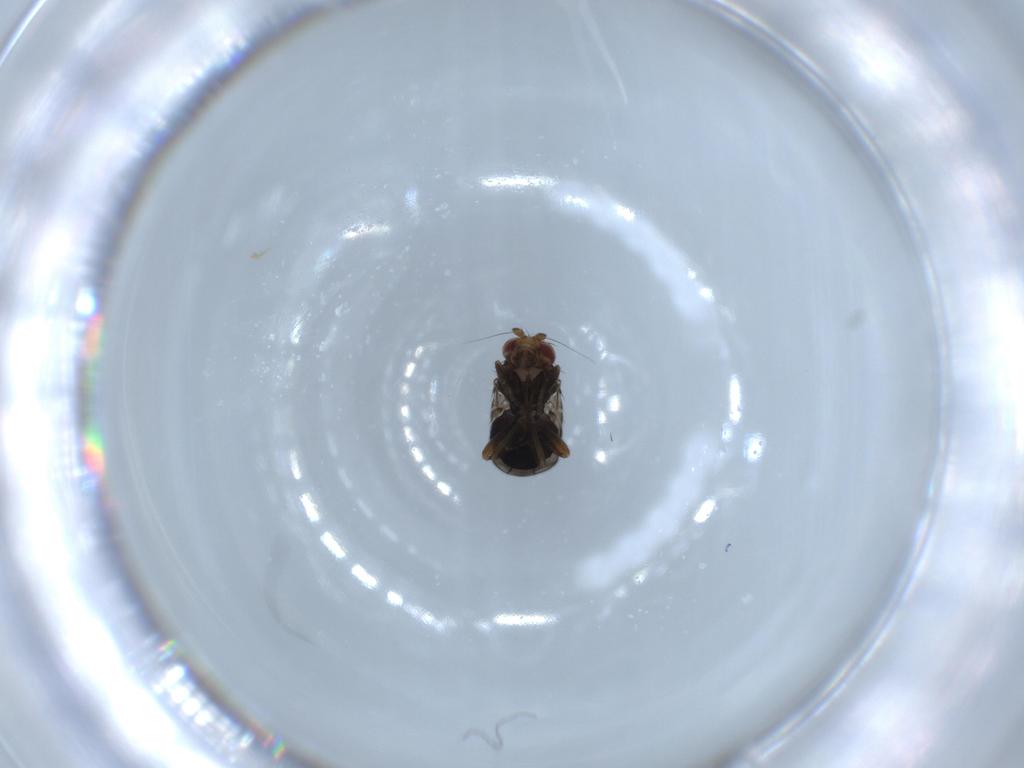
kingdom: Animalia
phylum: Arthropoda
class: Insecta
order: Diptera
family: Sphaeroceridae
